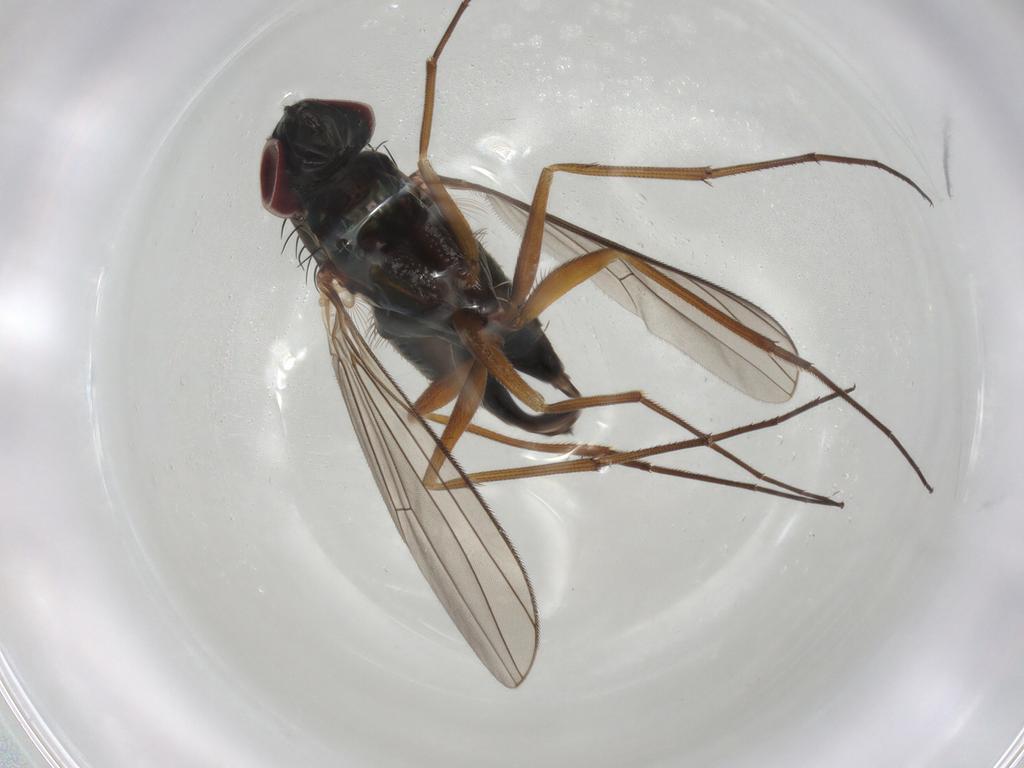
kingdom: Animalia
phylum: Arthropoda
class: Insecta
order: Diptera
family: Dolichopodidae
